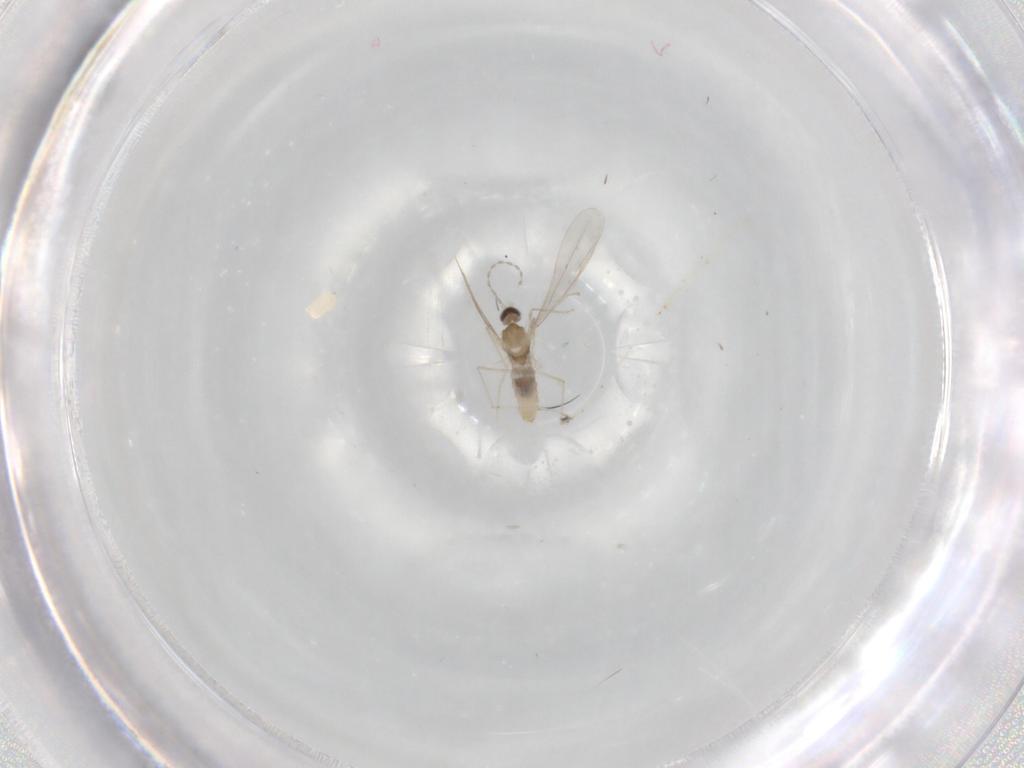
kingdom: Animalia
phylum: Arthropoda
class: Insecta
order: Diptera
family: Cecidomyiidae
